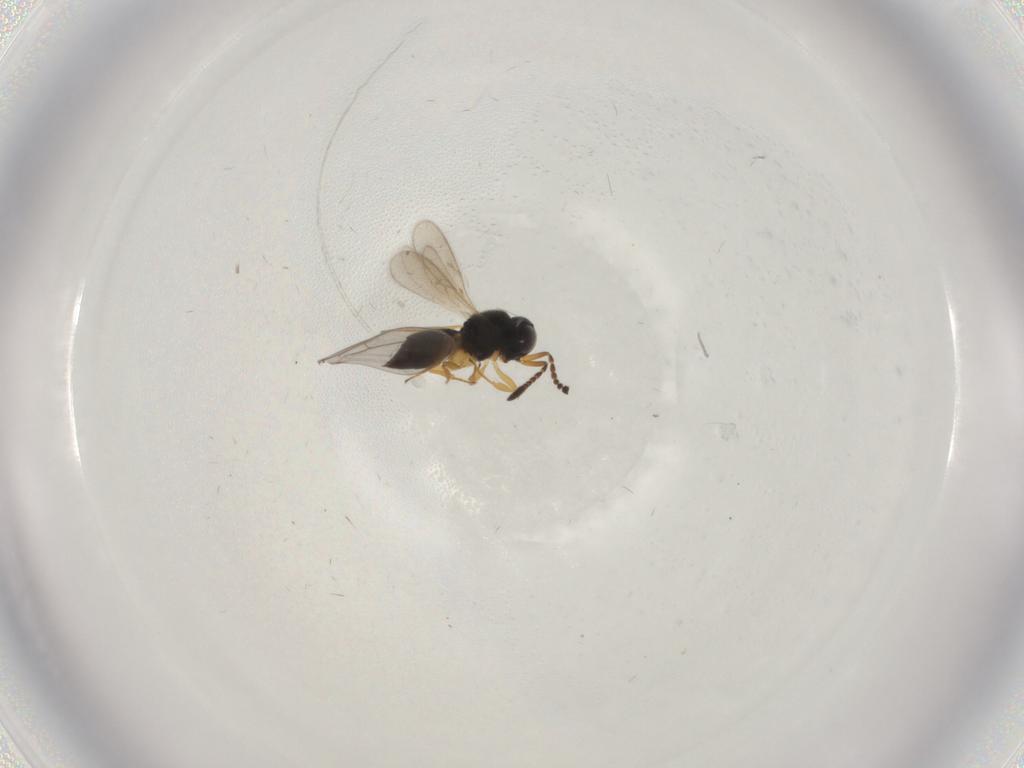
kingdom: Animalia
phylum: Arthropoda
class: Insecta
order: Hymenoptera
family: Scelionidae
